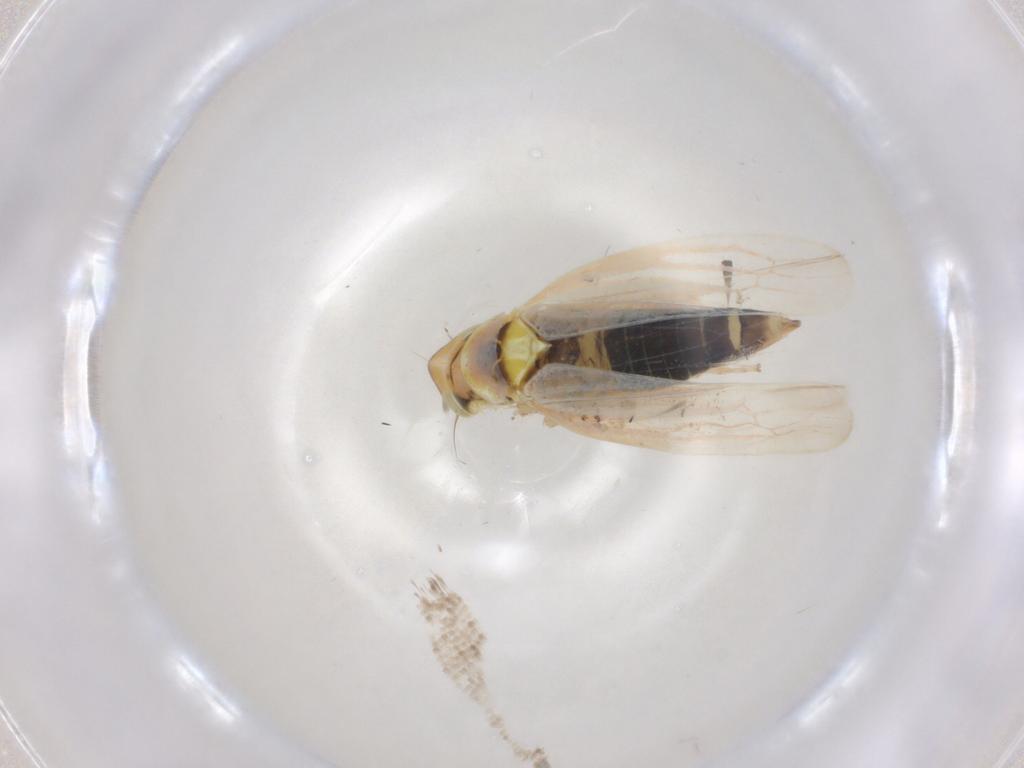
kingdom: Animalia
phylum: Arthropoda
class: Insecta
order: Hemiptera
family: Cicadellidae
